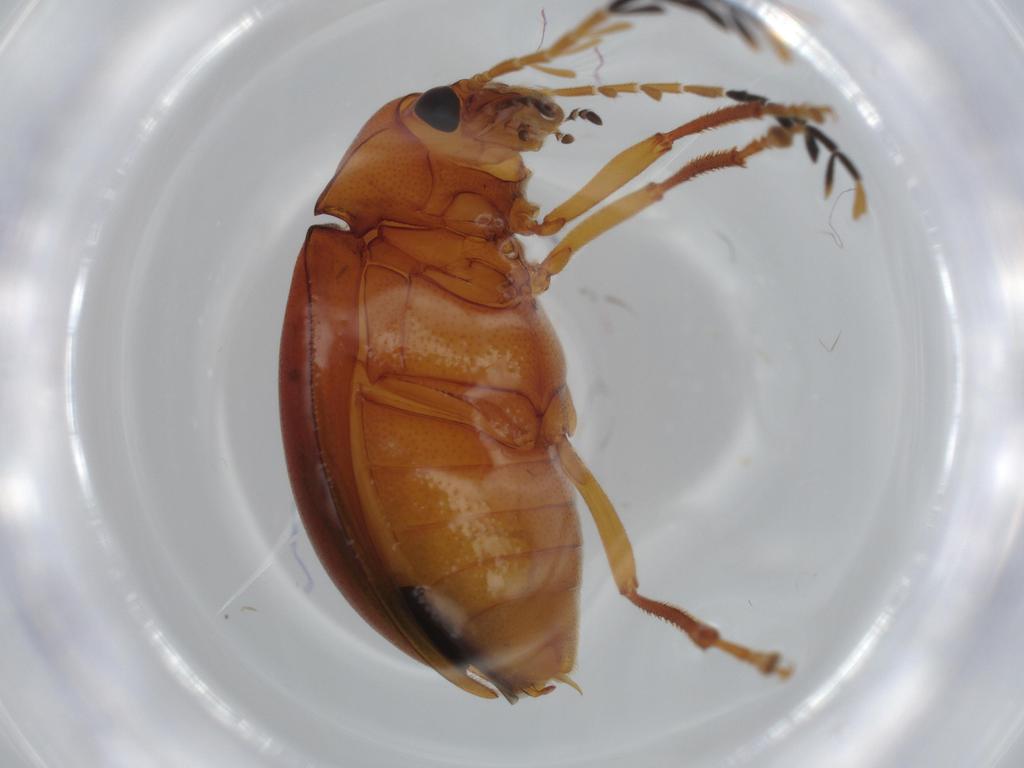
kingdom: Animalia
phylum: Arthropoda
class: Insecta
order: Coleoptera
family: Ptilodactylidae
